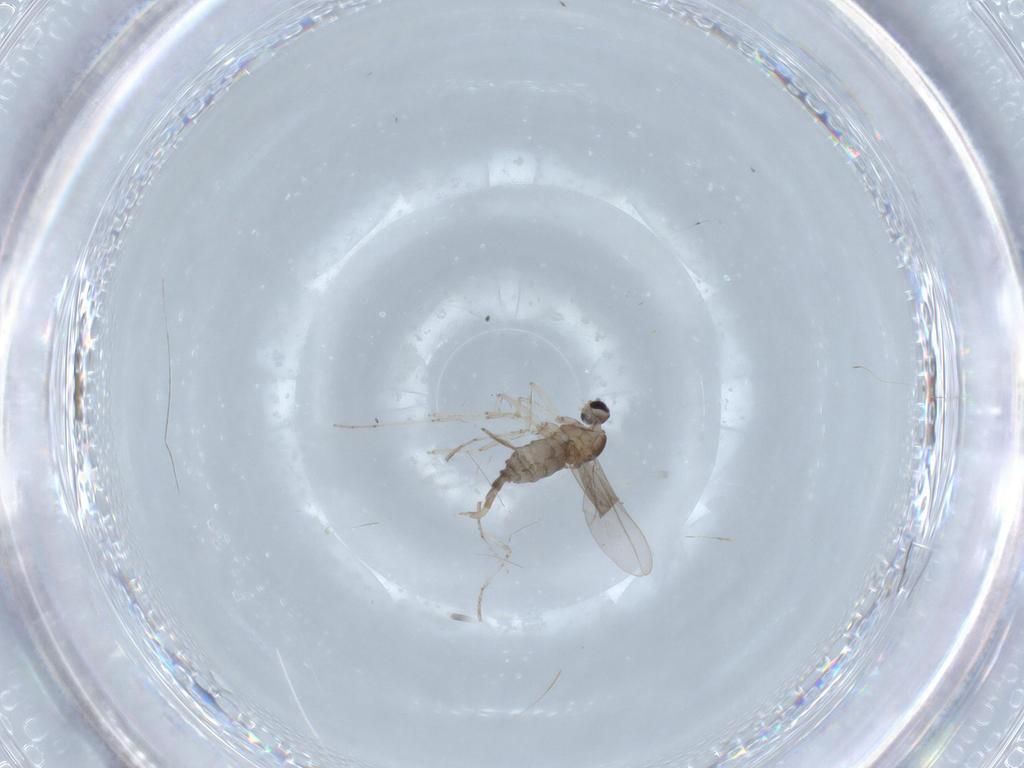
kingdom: Animalia
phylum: Arthropoda
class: Insecta
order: Diptera
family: Cecidomyiidae
